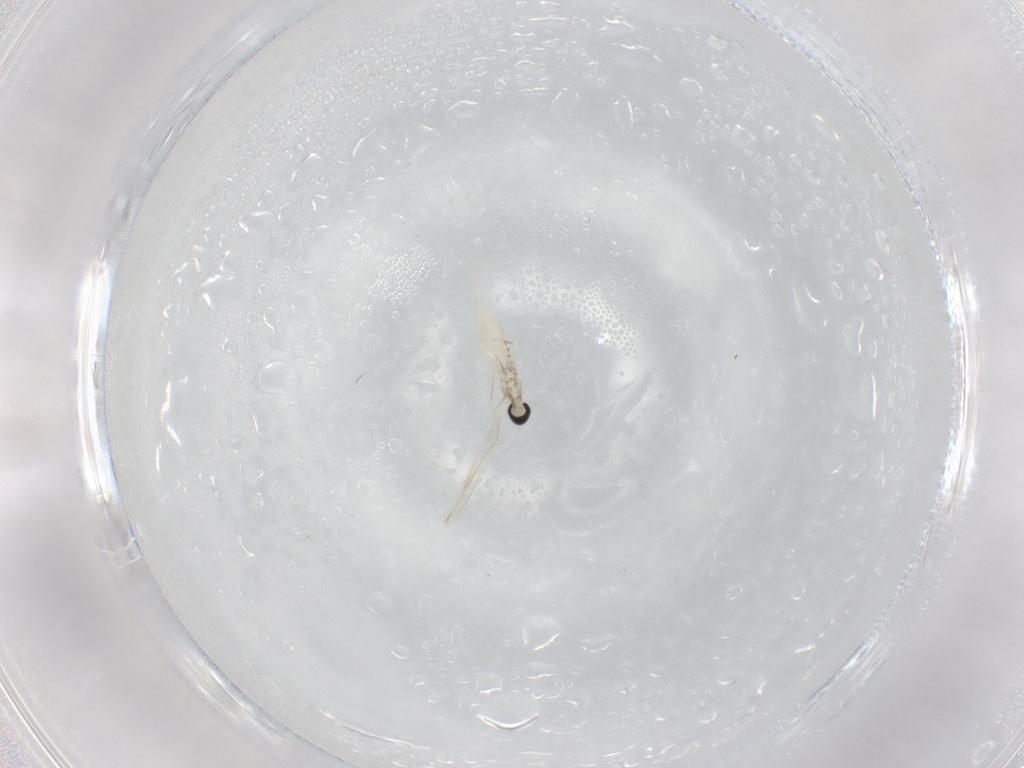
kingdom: Animalia
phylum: Arthropoda
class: Insecta
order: Diptera
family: Cecidomyiidae
